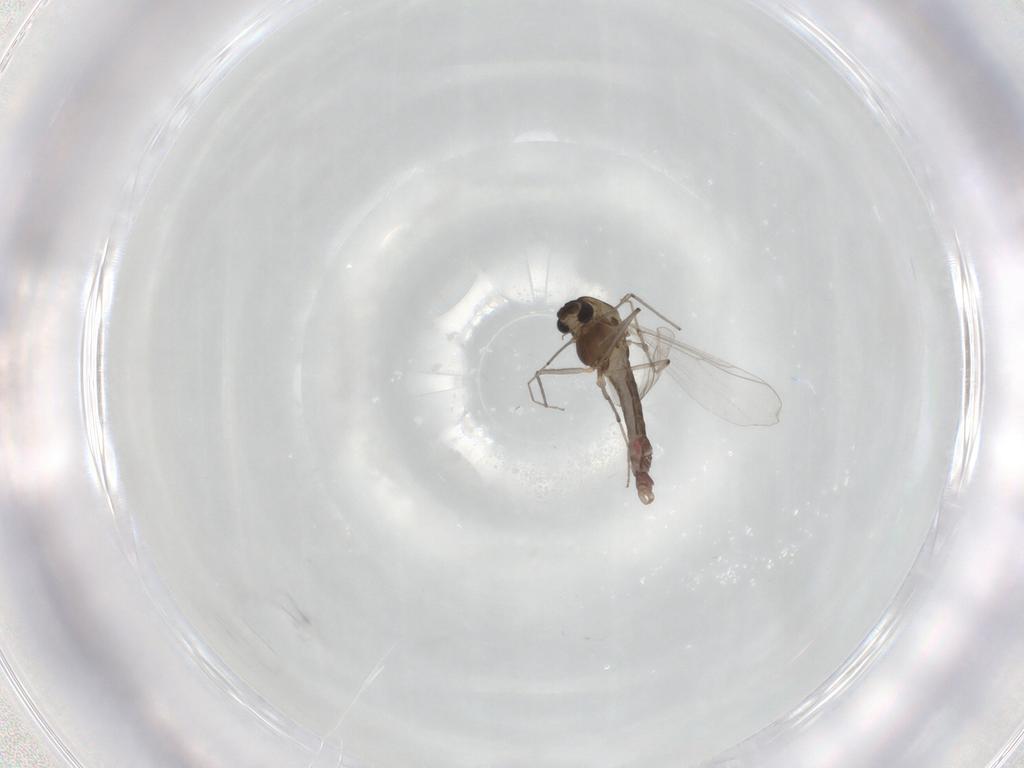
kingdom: Animalia
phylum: Arthropoda
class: Insecta
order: Diptera
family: Chironomidae
